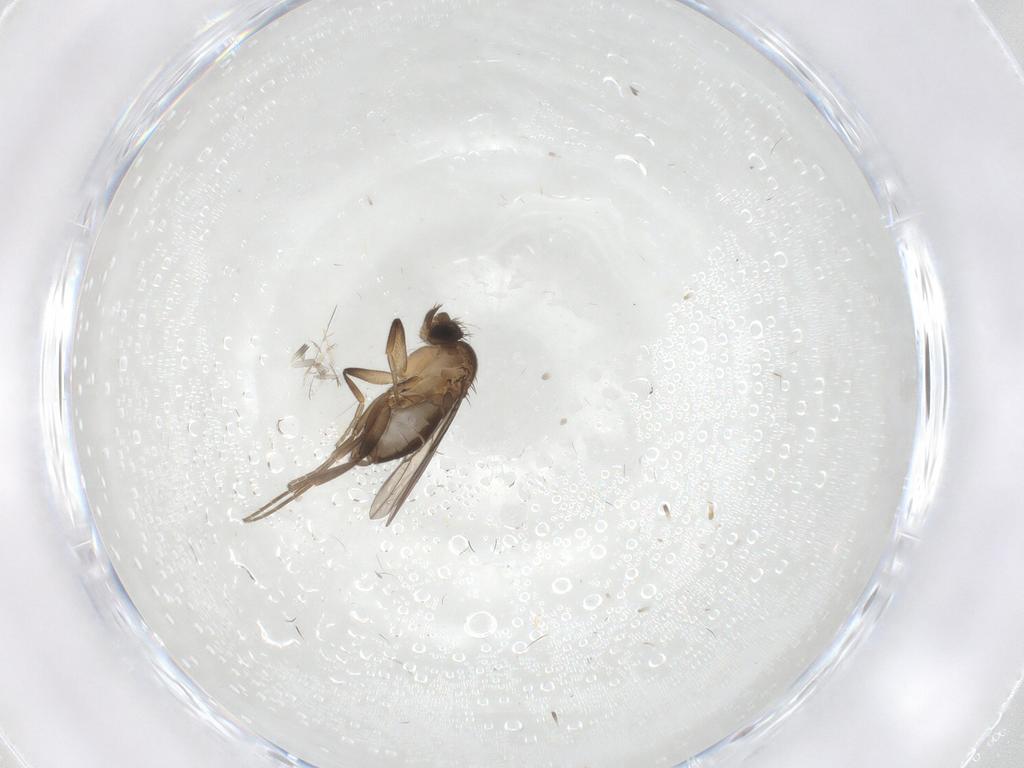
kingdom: Animalia
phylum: Arthropoda
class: Insecta
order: Diptera
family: Phoridae
